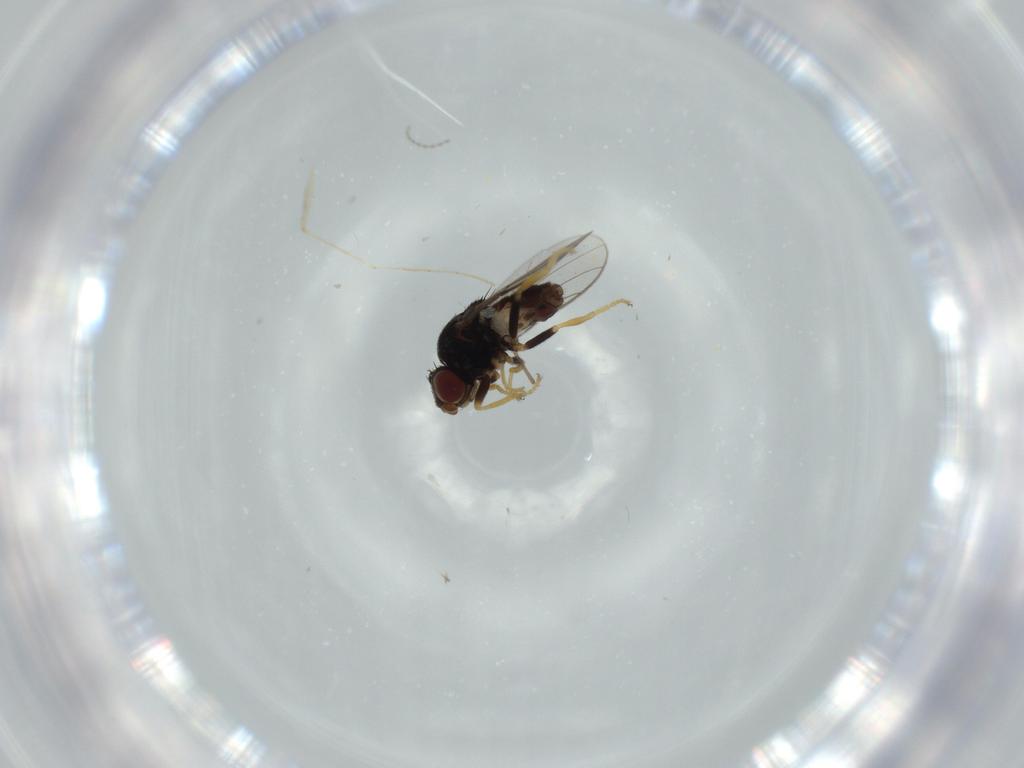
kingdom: Animalia
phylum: Arthropoda
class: Insecta
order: Diptera
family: Chloropidae
